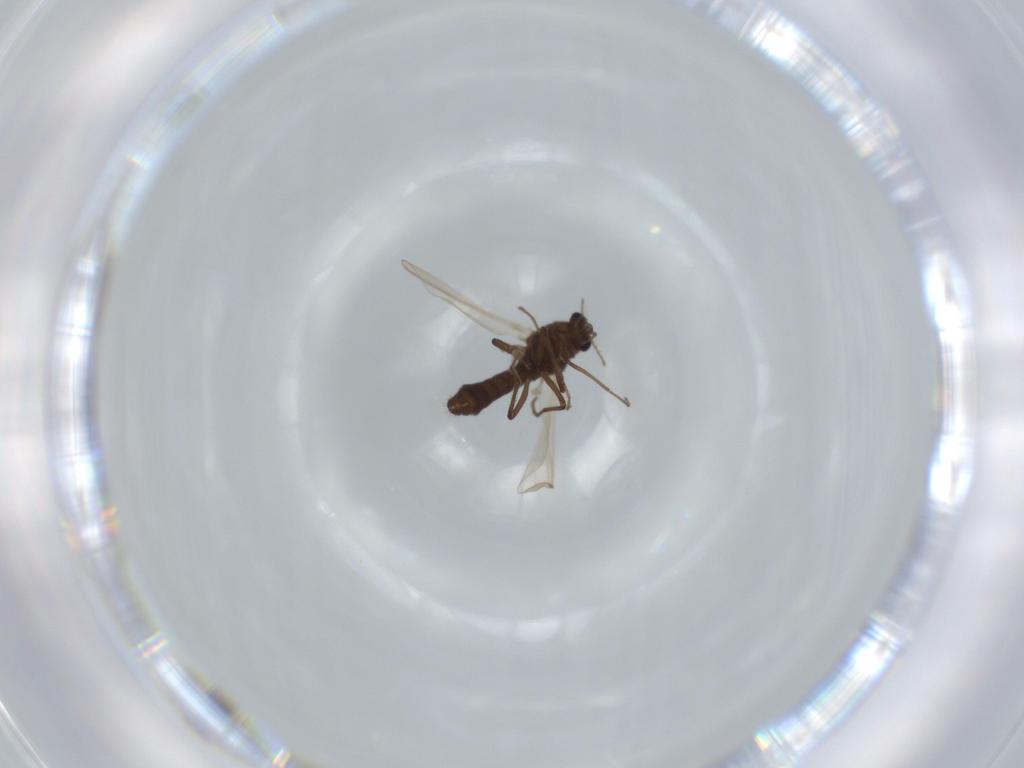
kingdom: Animalia
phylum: Arthropoda
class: Insecta
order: Diptera
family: Chironomidae
